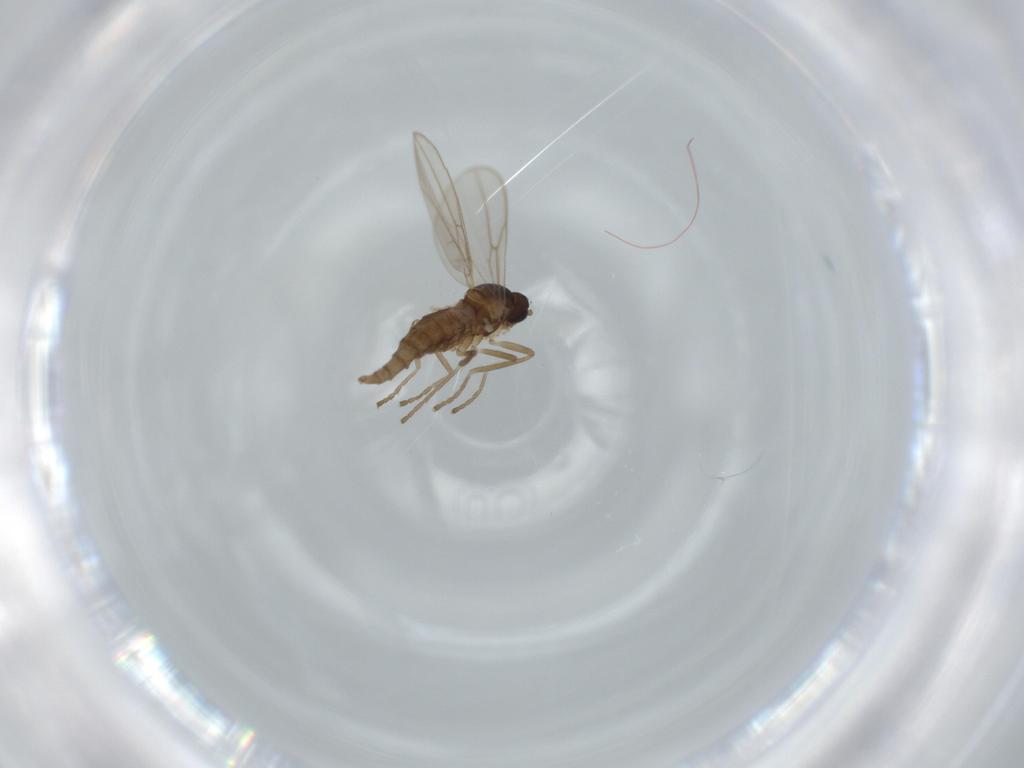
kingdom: Animalia
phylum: Arthropoda
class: Insecta
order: Diptera
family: Cecidomyiidae
